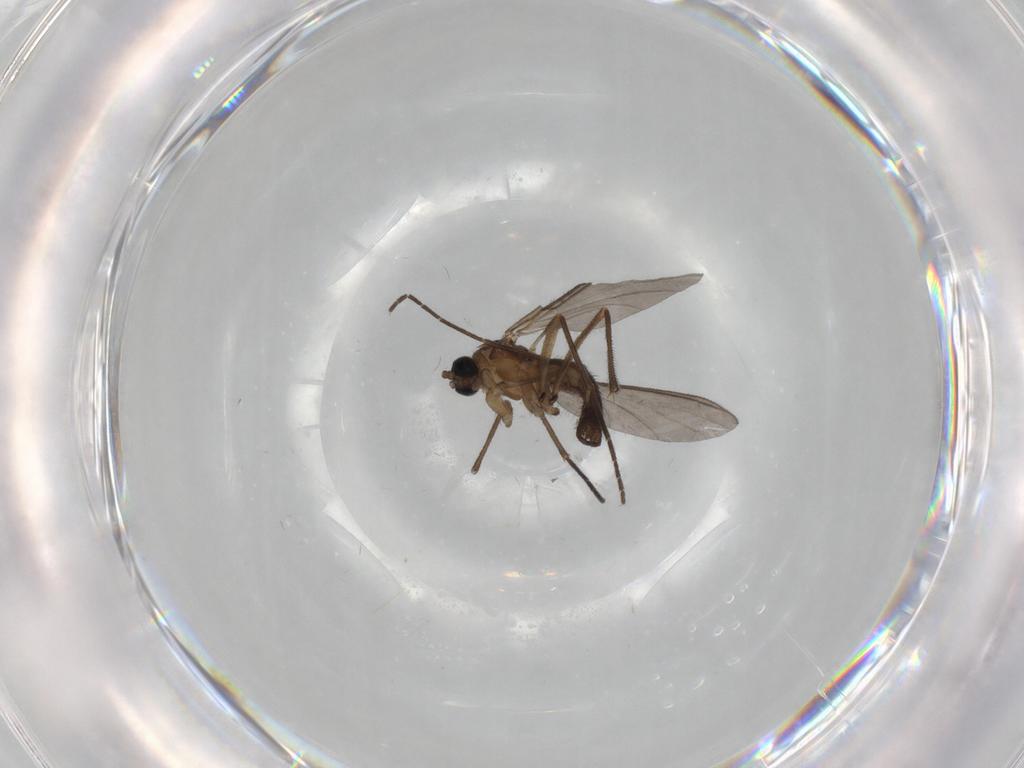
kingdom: Animalia
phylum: Arthropoda
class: Insecta
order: Diptera
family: Sciaridae
